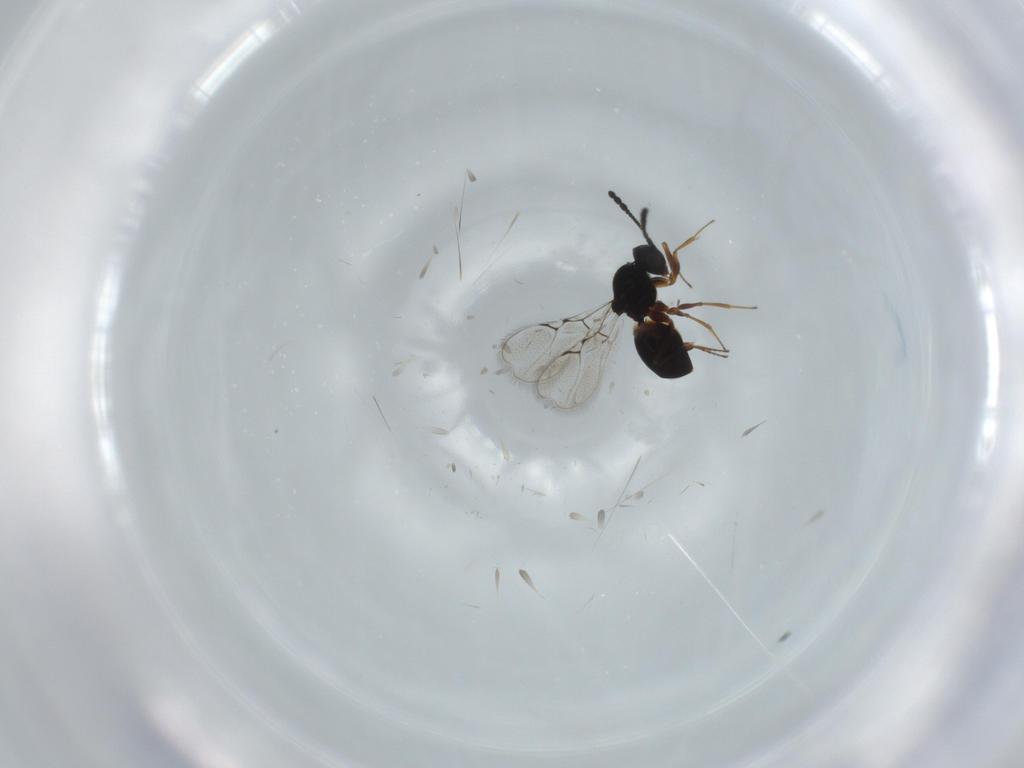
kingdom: Animalia
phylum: Arthropoda
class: Insecta
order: Hymenoptera
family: Figitidae
